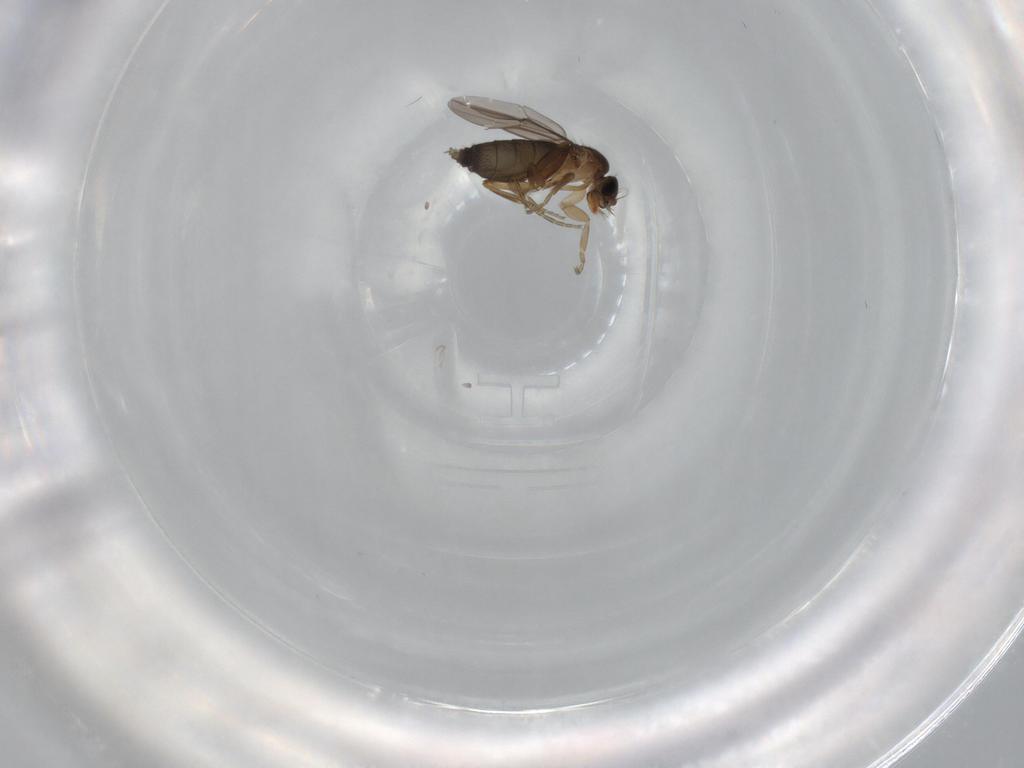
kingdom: Animalia
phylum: Arthropoda
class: Insecta
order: Diptera
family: Phoridae
